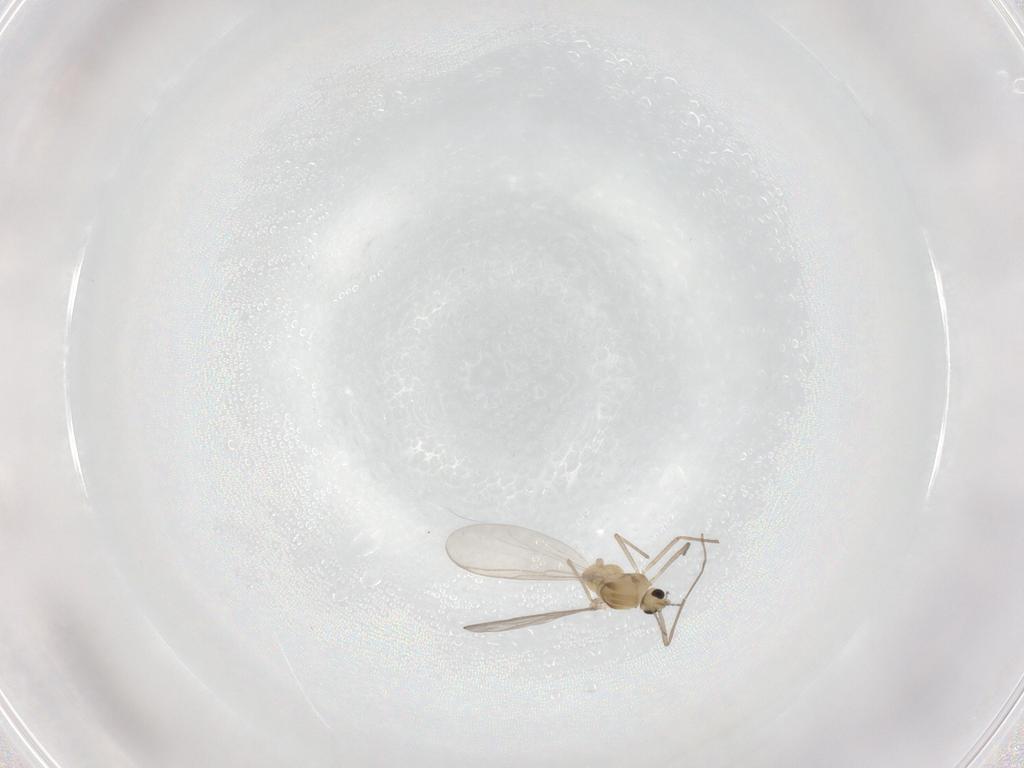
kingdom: Animalia
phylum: Arthropoda
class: Insecta
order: Diptera
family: Chironomidae
